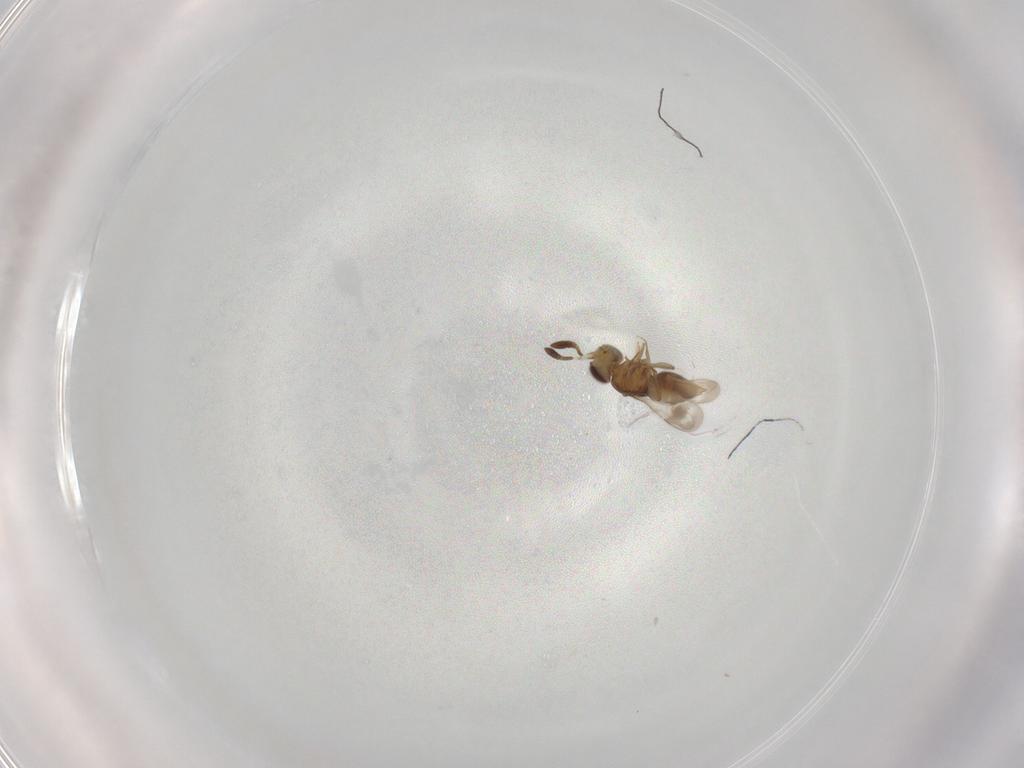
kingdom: Animalia
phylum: Arthropoda
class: Insecta
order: Hymenoptera
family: Ceraphronidae
